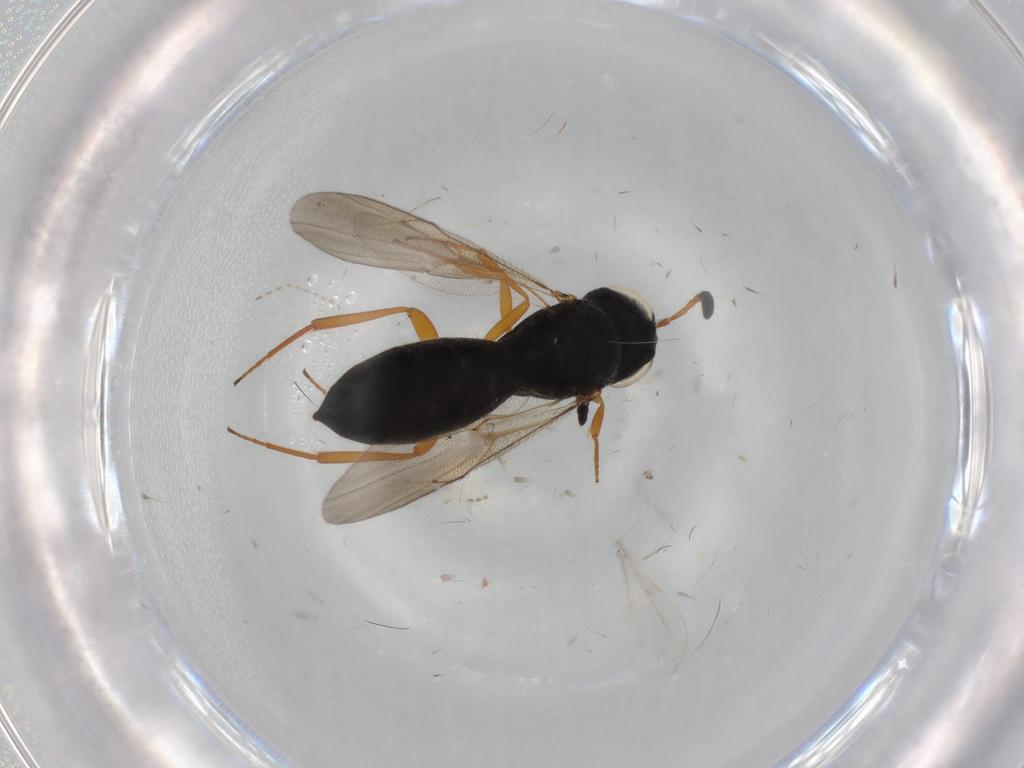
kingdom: Animalia
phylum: Arthropoda
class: Insecta
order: Hymenoptera
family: Scelionidae
